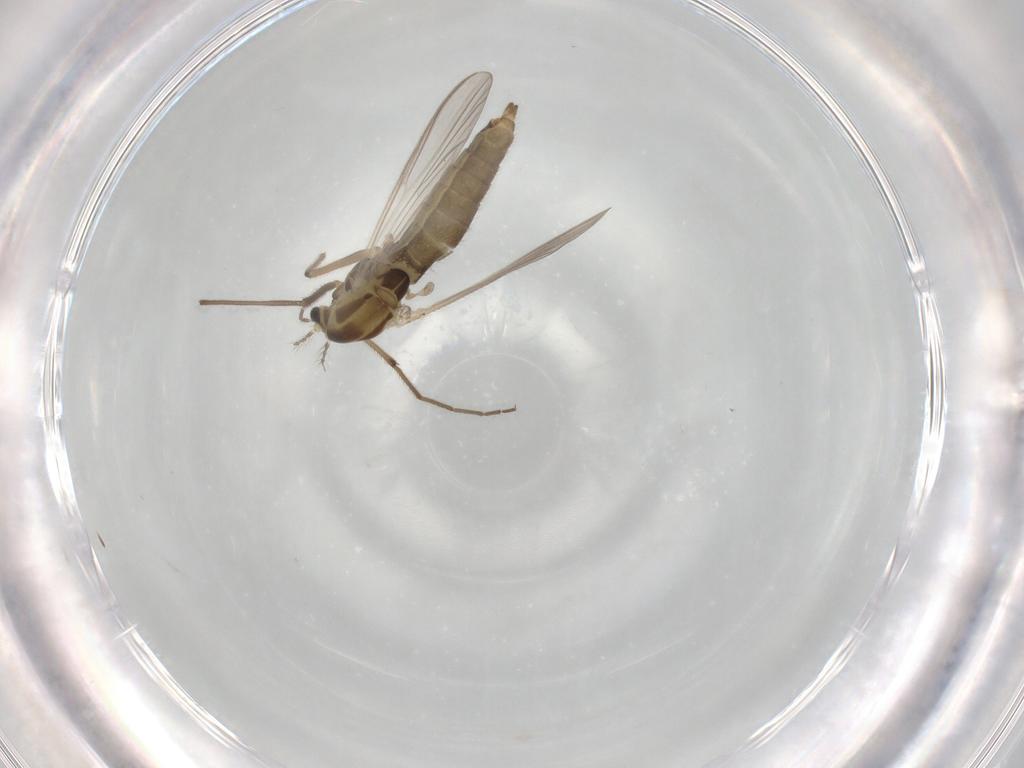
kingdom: Animalia
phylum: Arthropoda
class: Insecta
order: Diptera
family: Chironomidae
